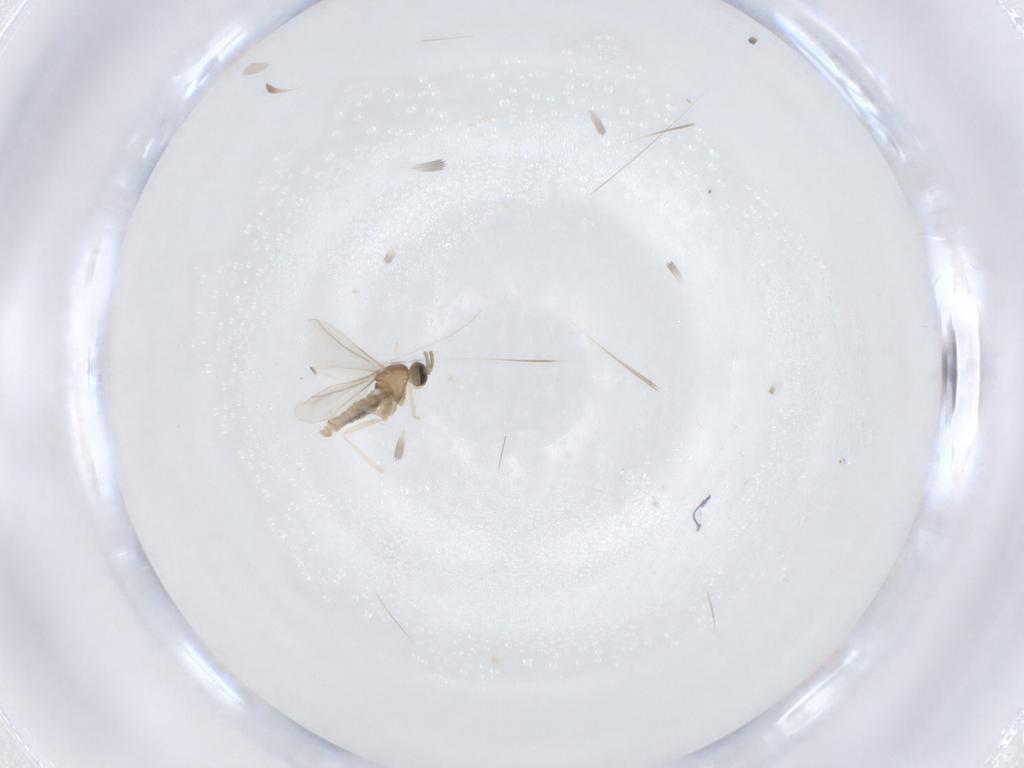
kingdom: Animalia
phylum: Arthropoda
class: Insecta
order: Diptera
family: Cecidomyiidae
